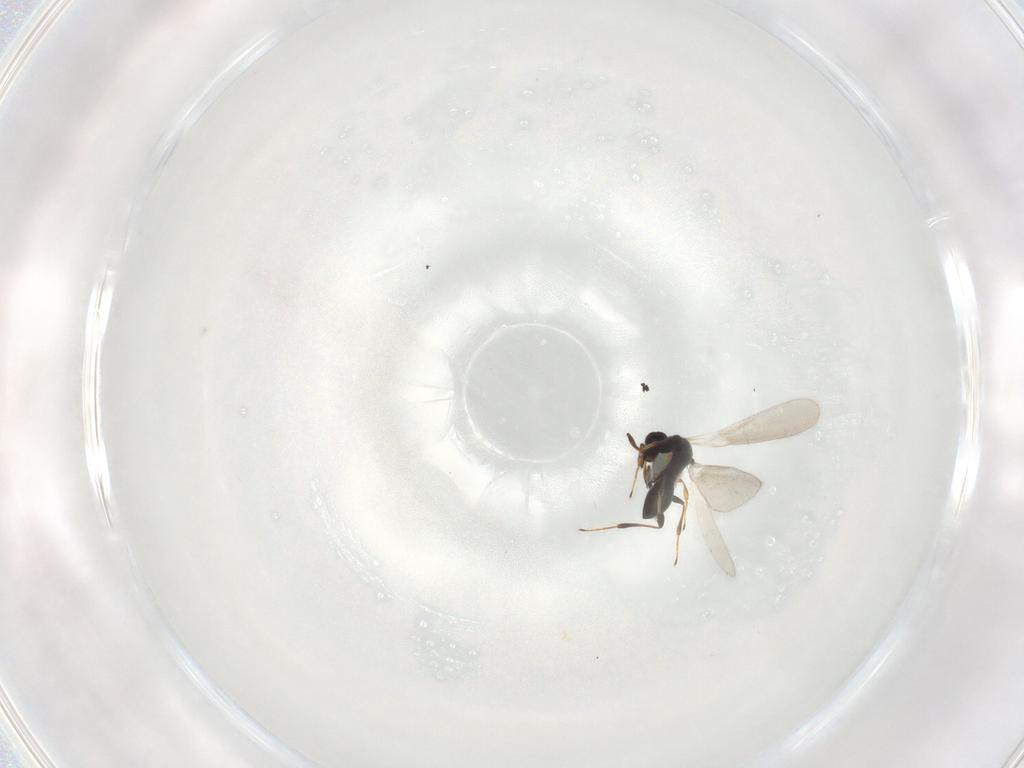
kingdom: Animalia
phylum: Arthropoda
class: Insecta
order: Hymenoptera
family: Platygastridae
